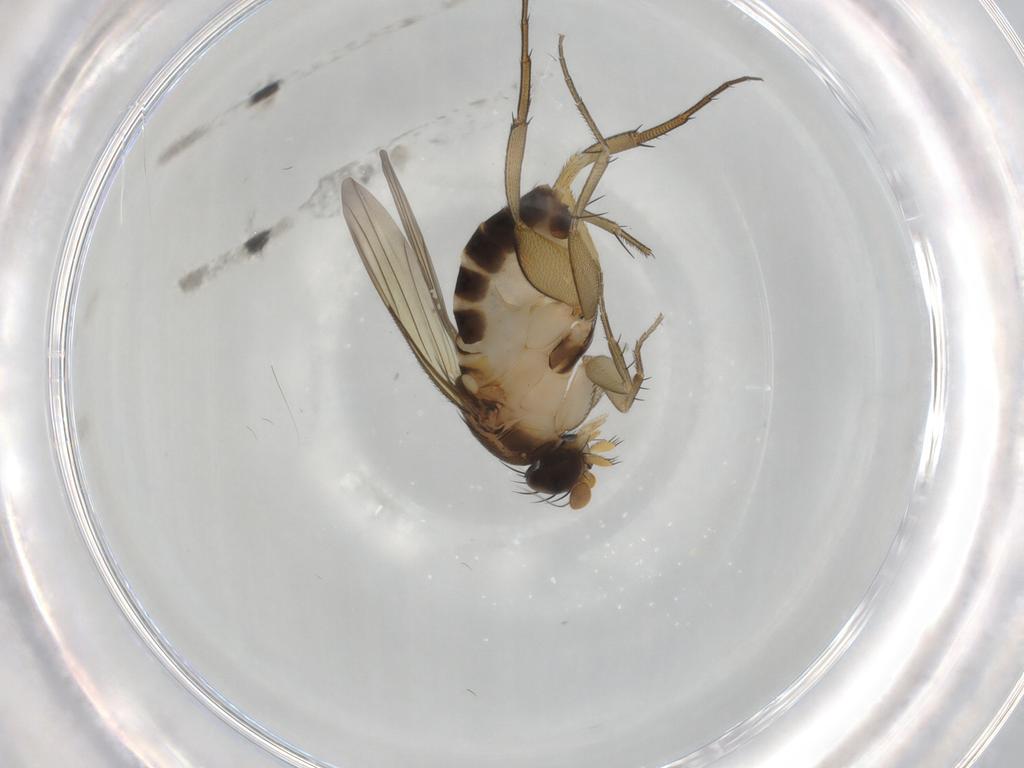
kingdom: Animalia
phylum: Arthropoda
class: Insecta
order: Diptera
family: Phoridae
